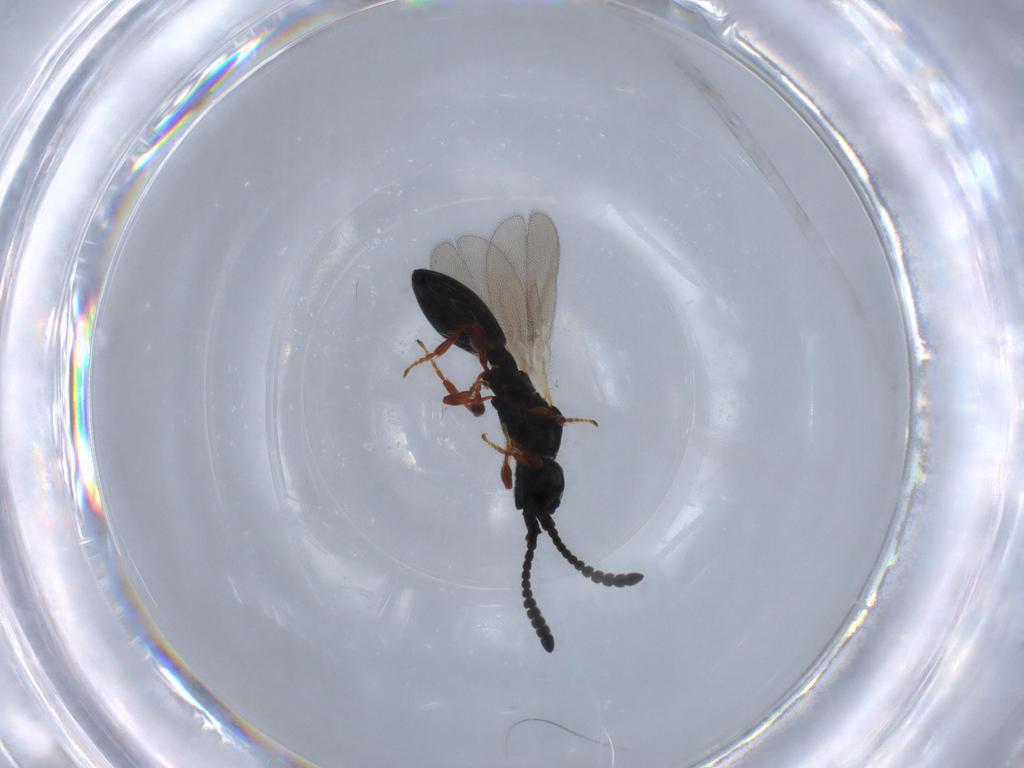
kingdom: Animalia
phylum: Arthropoda
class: Insecta
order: Hymenoptera
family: Diapriidae
